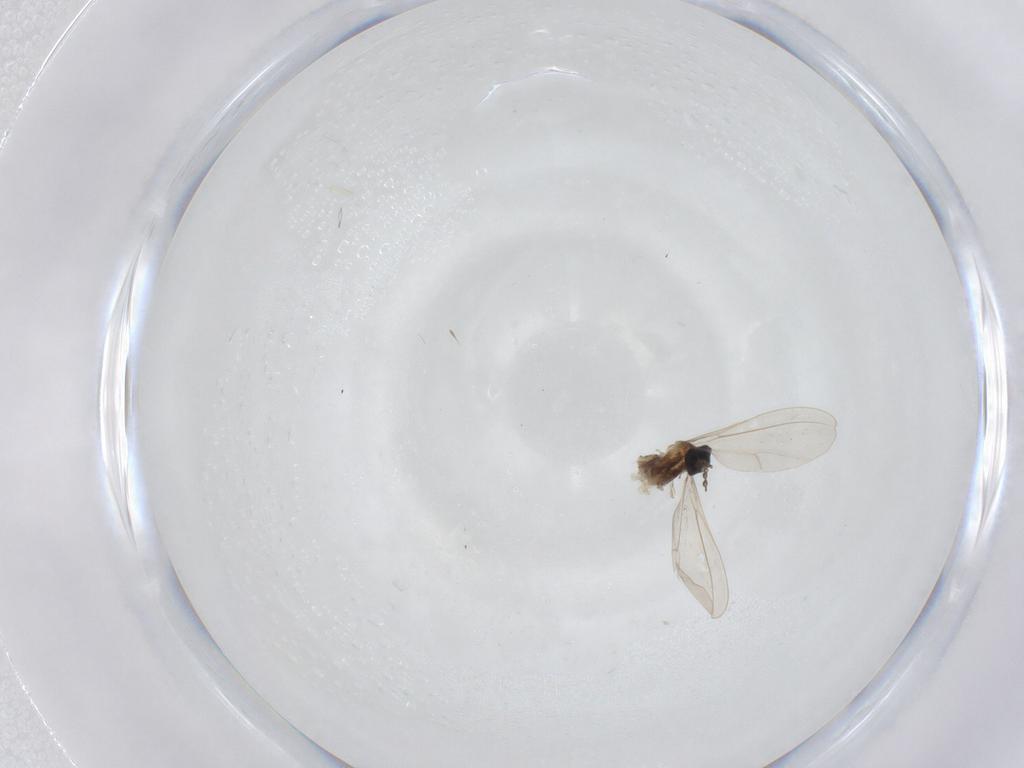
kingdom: Animalia
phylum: Arthropoda
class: Insecta
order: Diptera
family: Cecidomyiidae
